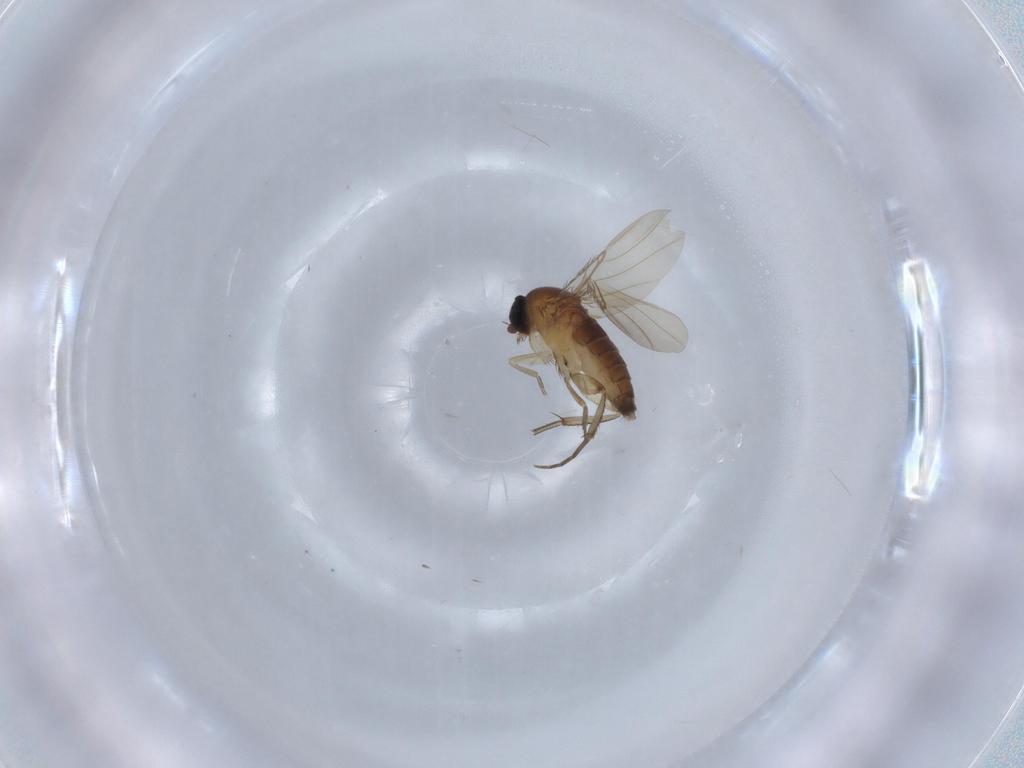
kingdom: Animalia
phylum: Arthropoda
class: Insecta
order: Diptera
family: Phoridae
